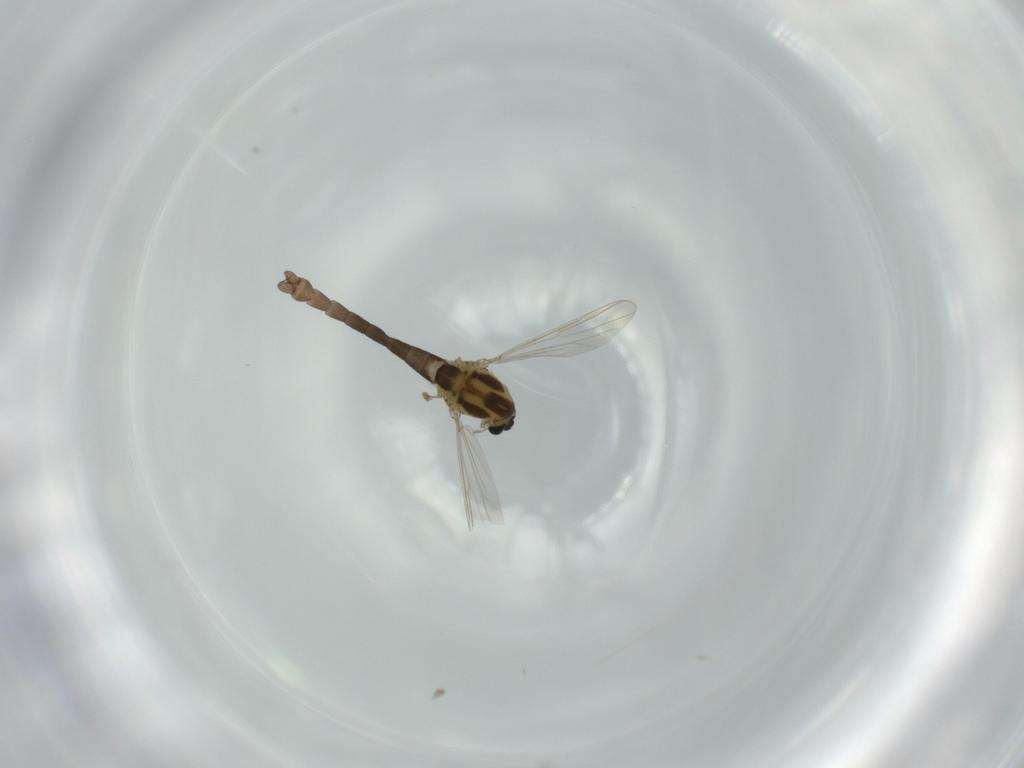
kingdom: Animalia
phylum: Arthropoda
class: Insecta
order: Diptera
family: Chironomidae
